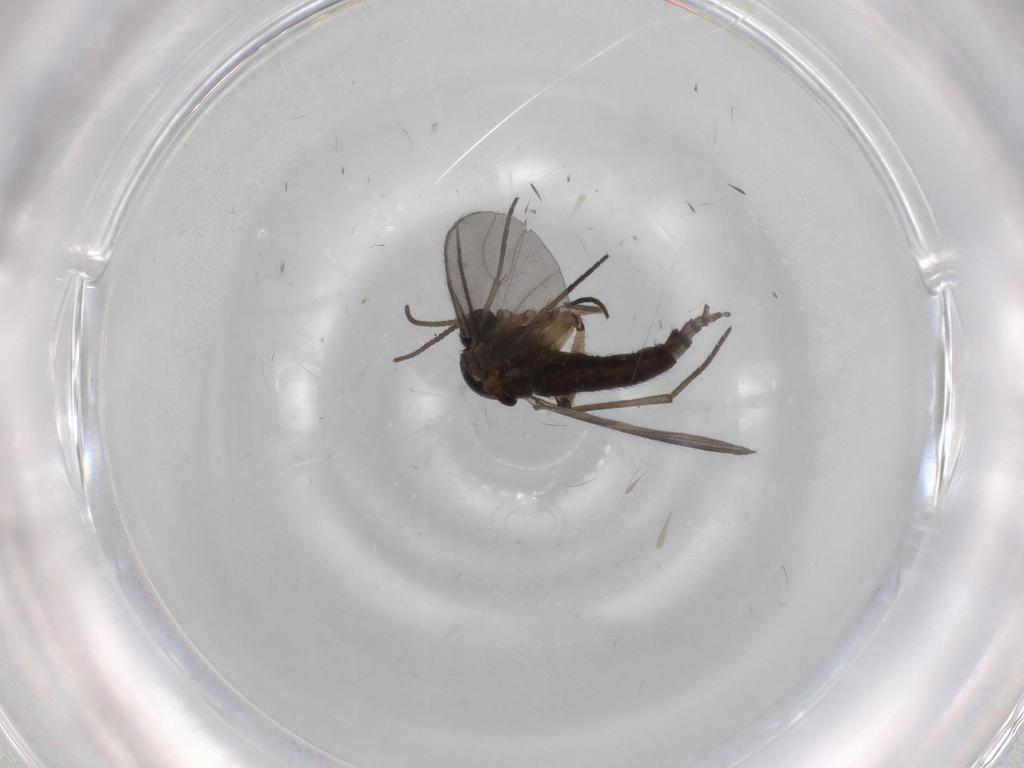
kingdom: Animalia
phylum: Arthropoda
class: Insecta
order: Diptera
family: Sciaridae
